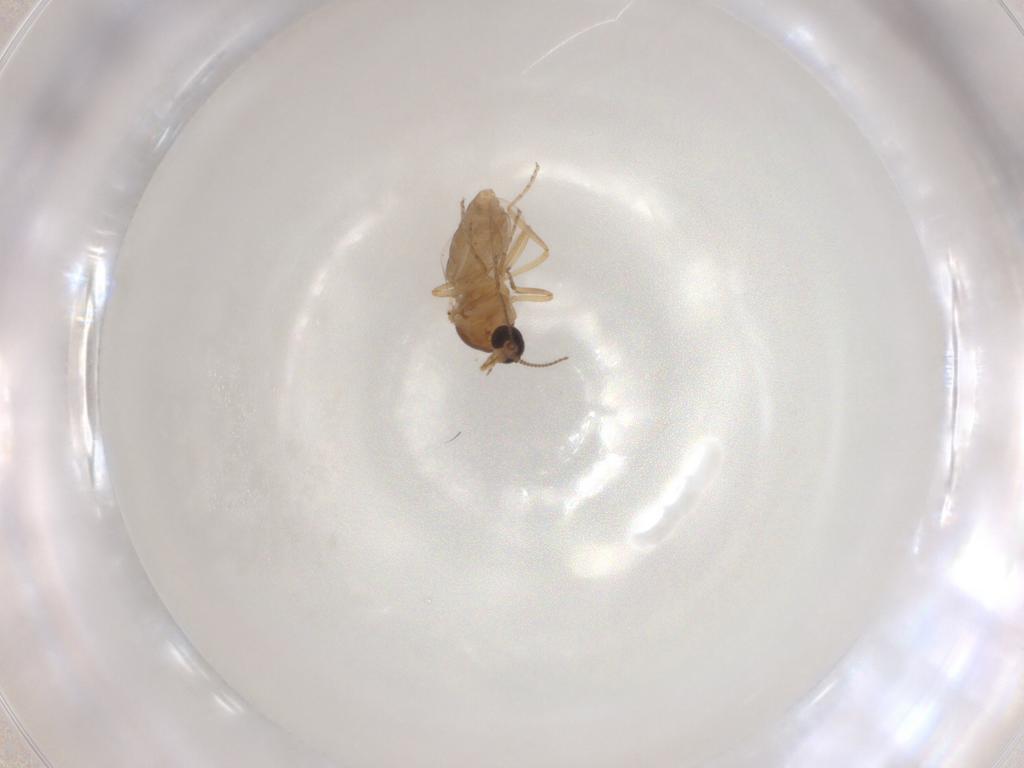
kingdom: Animalia
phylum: Arthropoda
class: Insecta
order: Diptera
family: Ceratopogonidae
